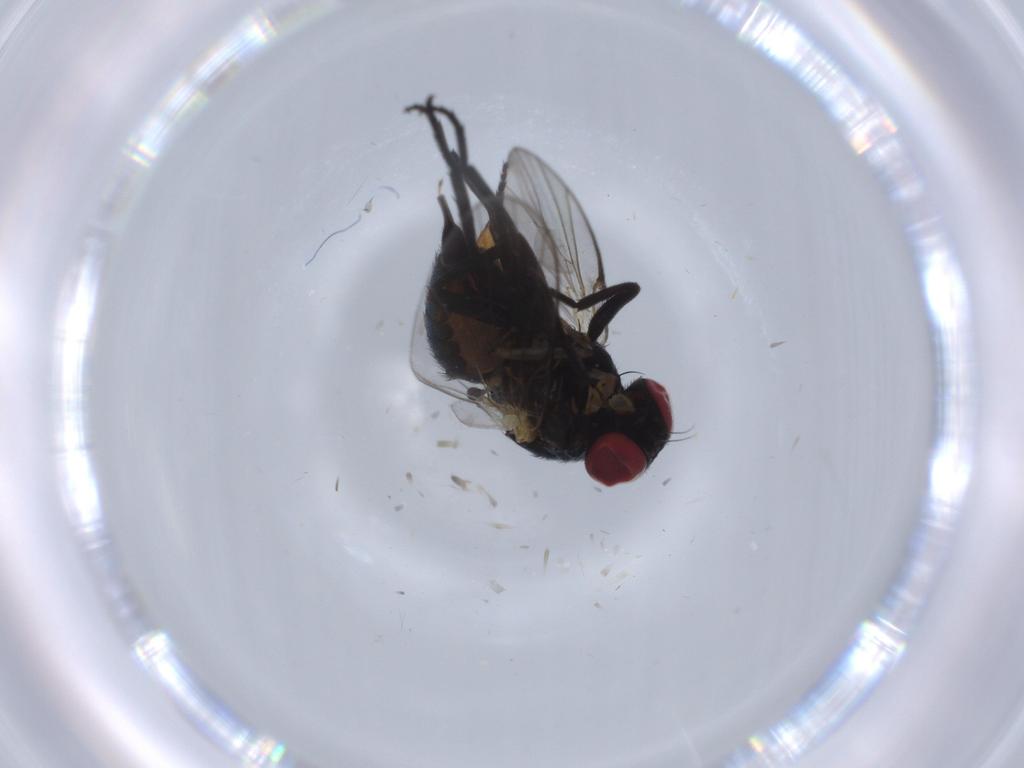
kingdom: Animalia
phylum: Arthropoda
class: Insecta
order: Diptera
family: Simuliidae
